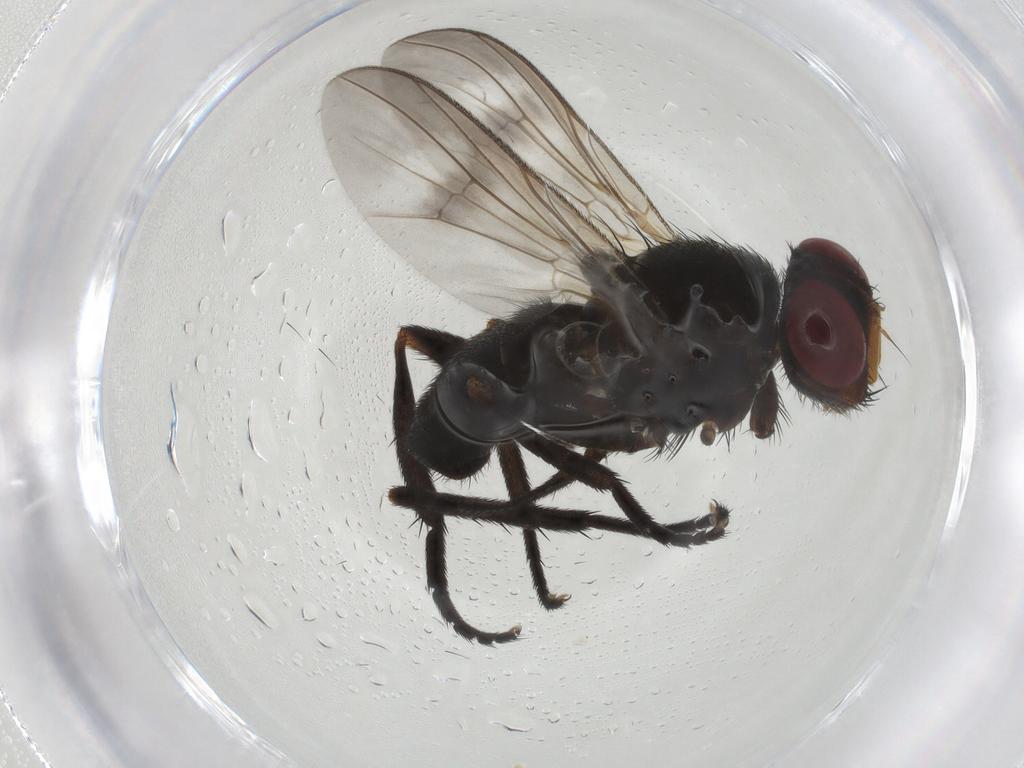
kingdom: Animalia
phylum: Arthropoda
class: Insecta
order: Diptera
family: Calliphoridae
